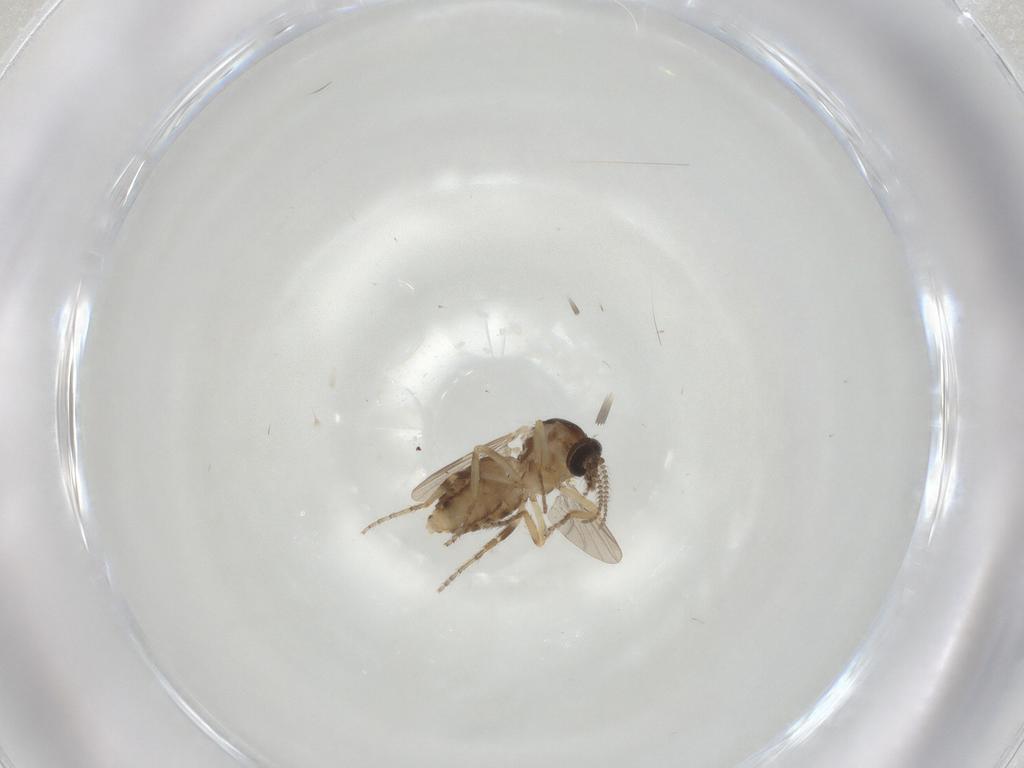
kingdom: Animalia
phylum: Arthropoda
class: Insecta
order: Diptera
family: Ceratopogonidae
